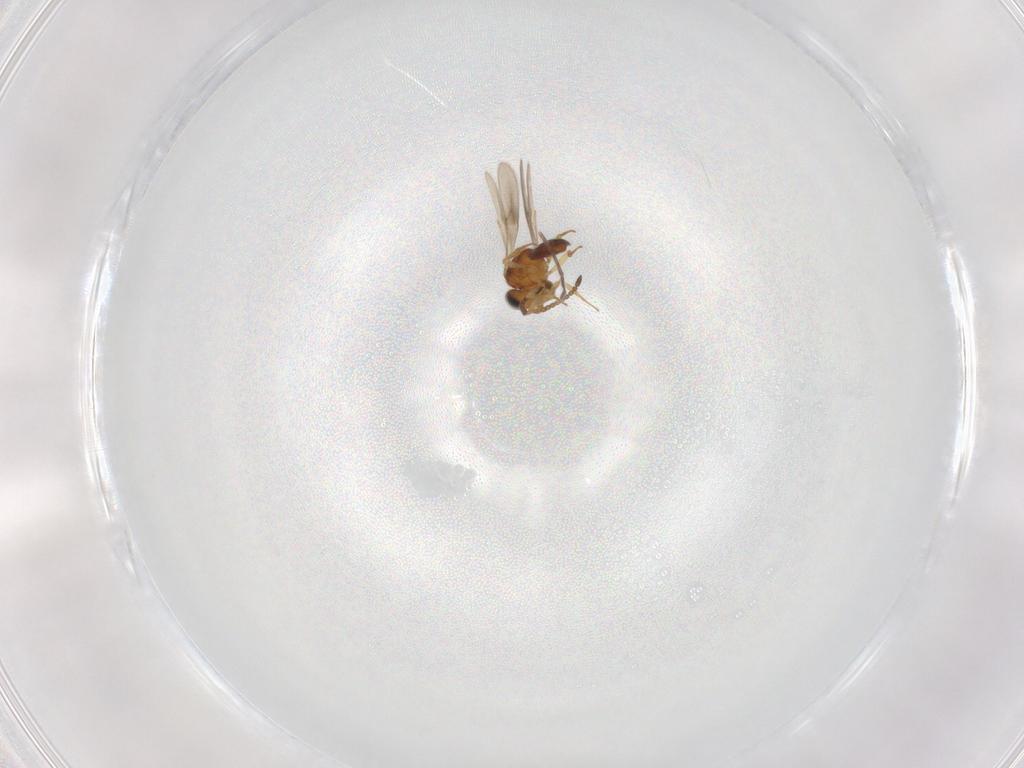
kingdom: Animalia
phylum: Arthropoda
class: Insecta
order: Hymenoptera
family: Scelionidae
